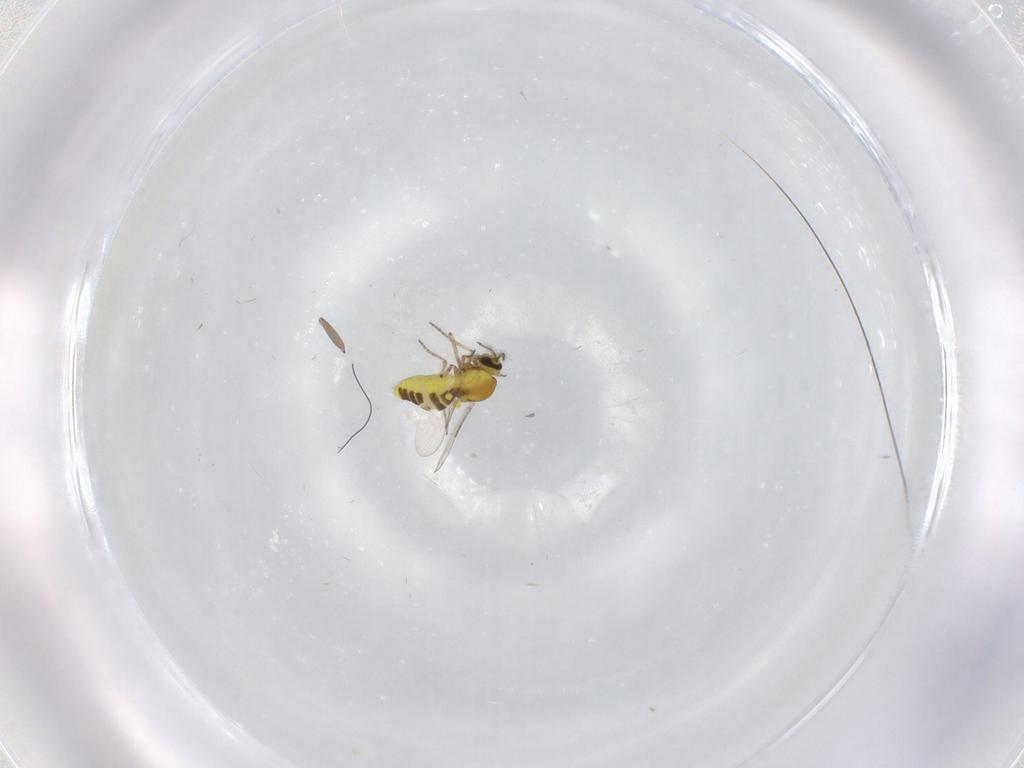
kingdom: Animalia
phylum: Arthropoda
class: Insecta
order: Diptera
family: Ceratopogonidae
